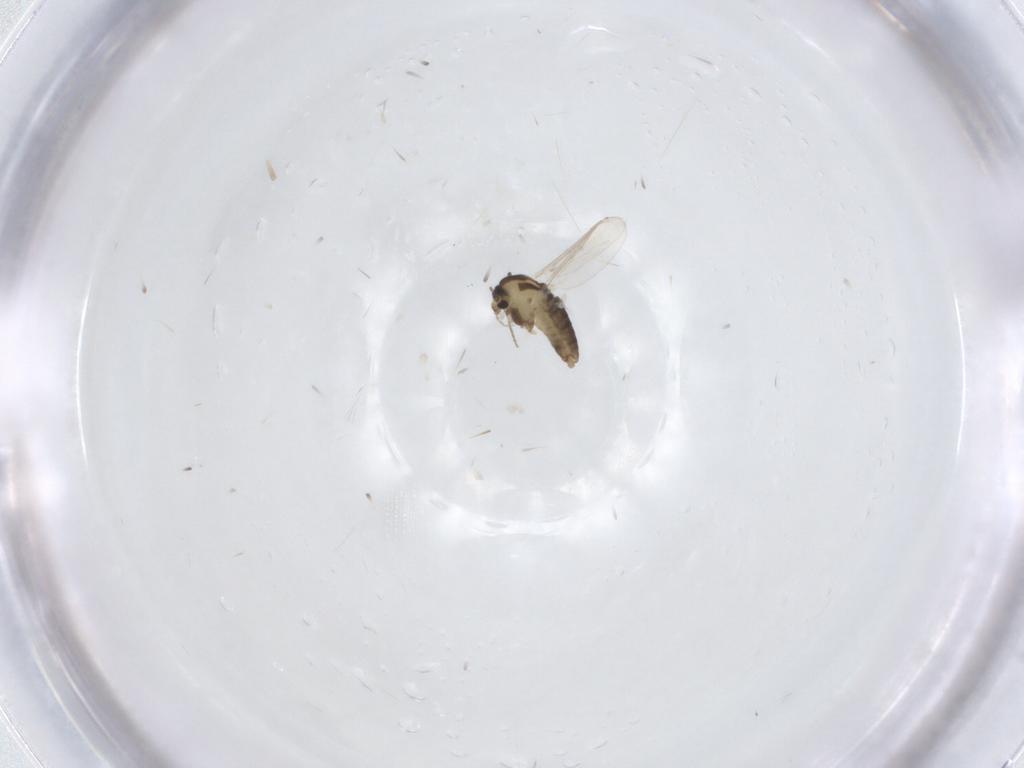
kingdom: Animalia
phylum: Arthropoda
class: Insecta
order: Diptera
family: Chironomidae
